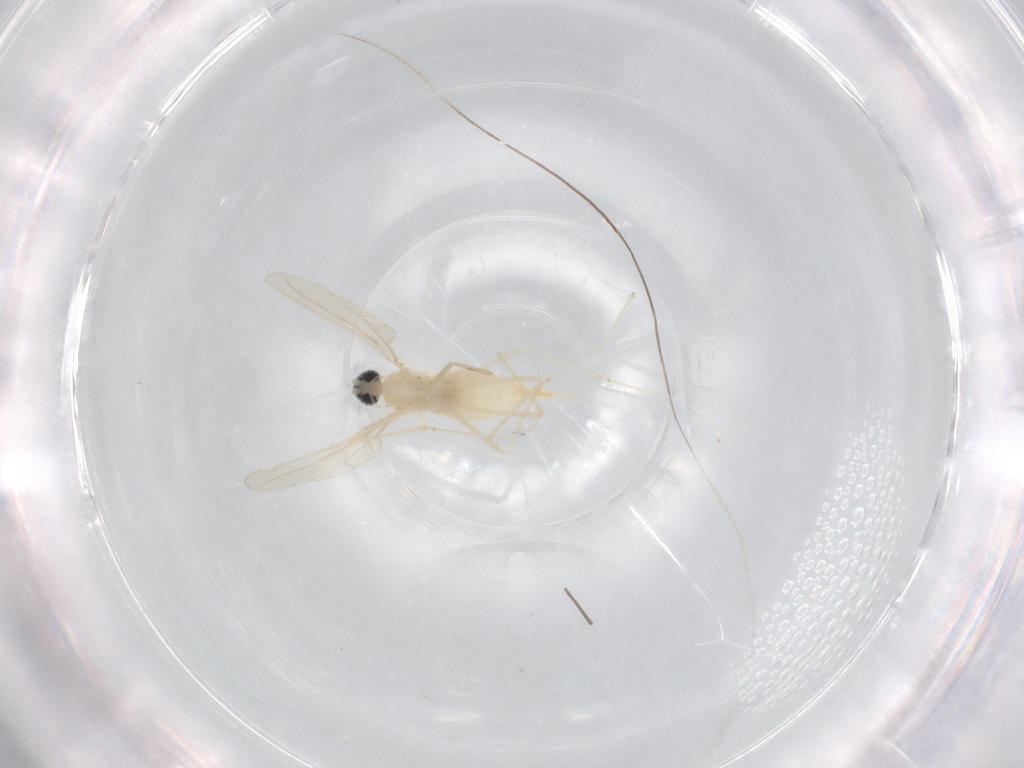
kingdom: Animalia
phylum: Arthropoda
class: Insecta
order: Diptera
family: Cecidomyiidae
